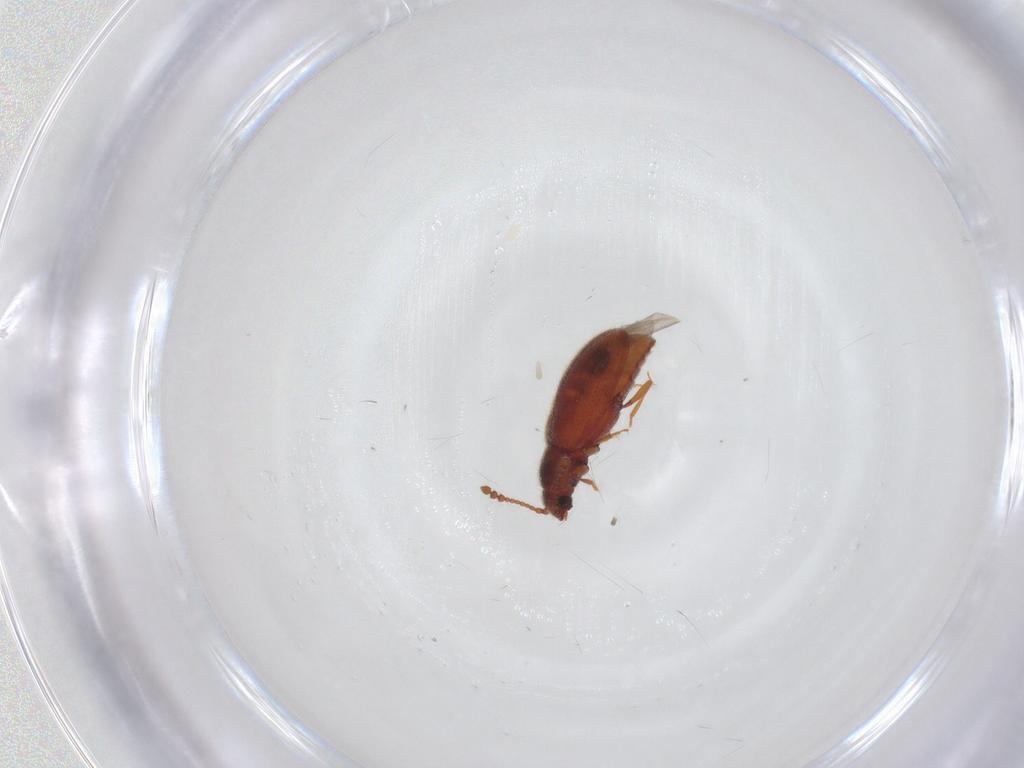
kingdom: Animalia
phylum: Arthropoda
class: Insecta
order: Coleoptera
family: Cryptophagidae
